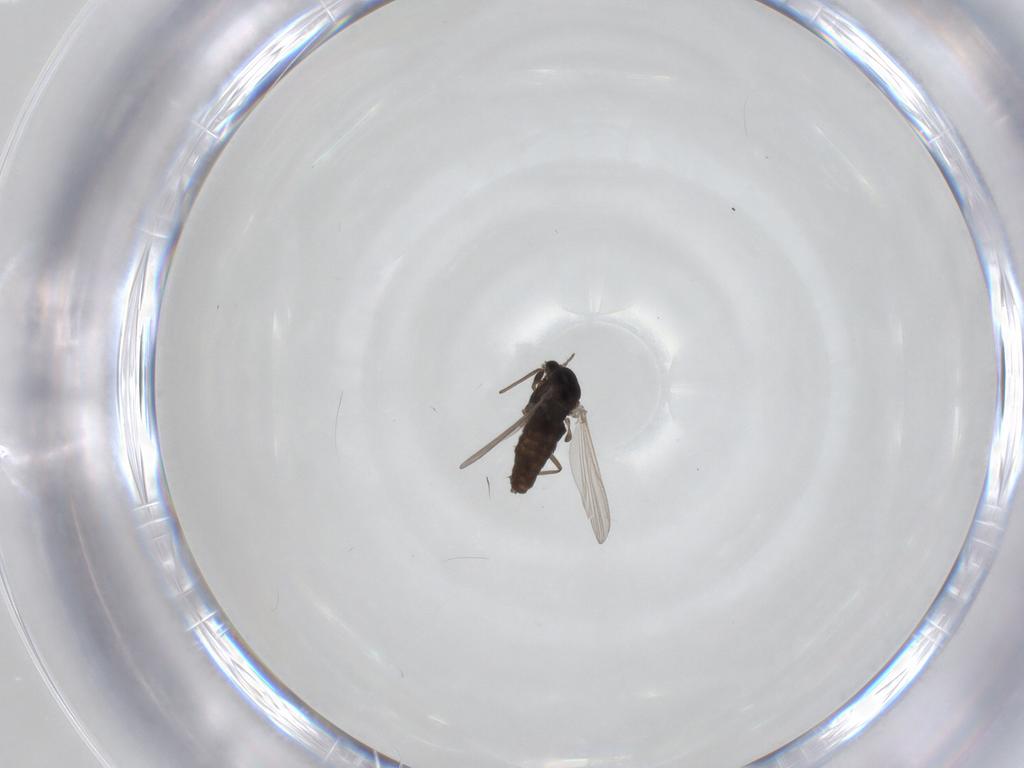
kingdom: Animalia
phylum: Arthropoda
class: Insecta
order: Diptera
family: Chironomidae
